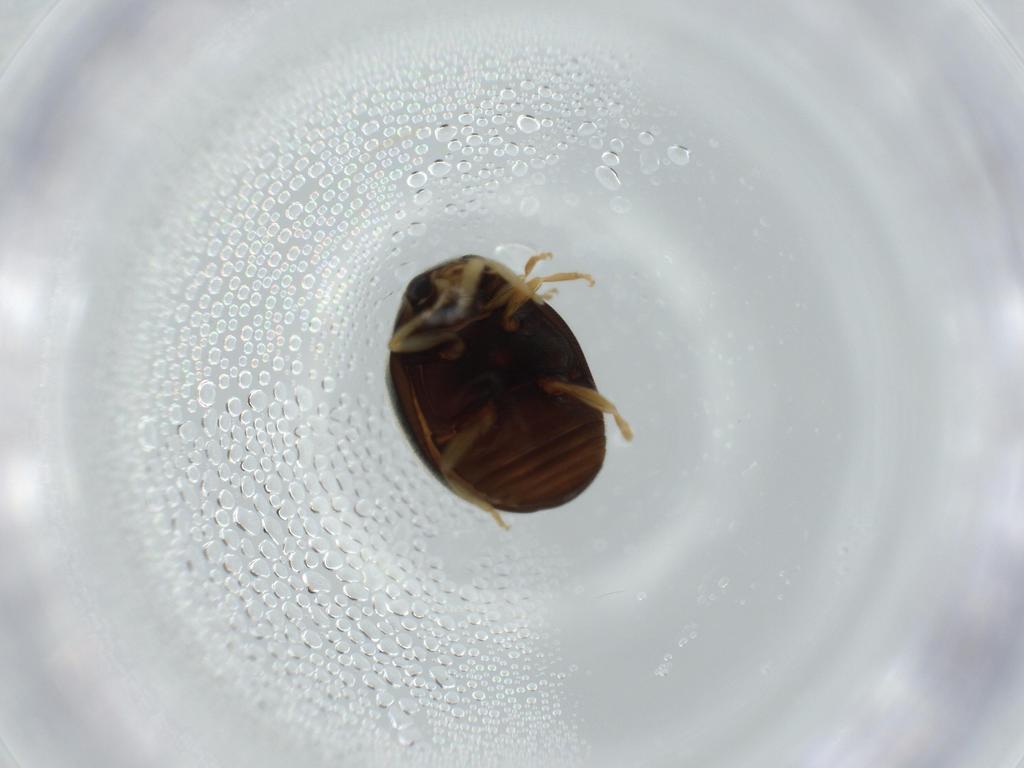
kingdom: Animalia
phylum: Arthropoda
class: Insecta
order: Coleoptera
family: Coccinellidae
